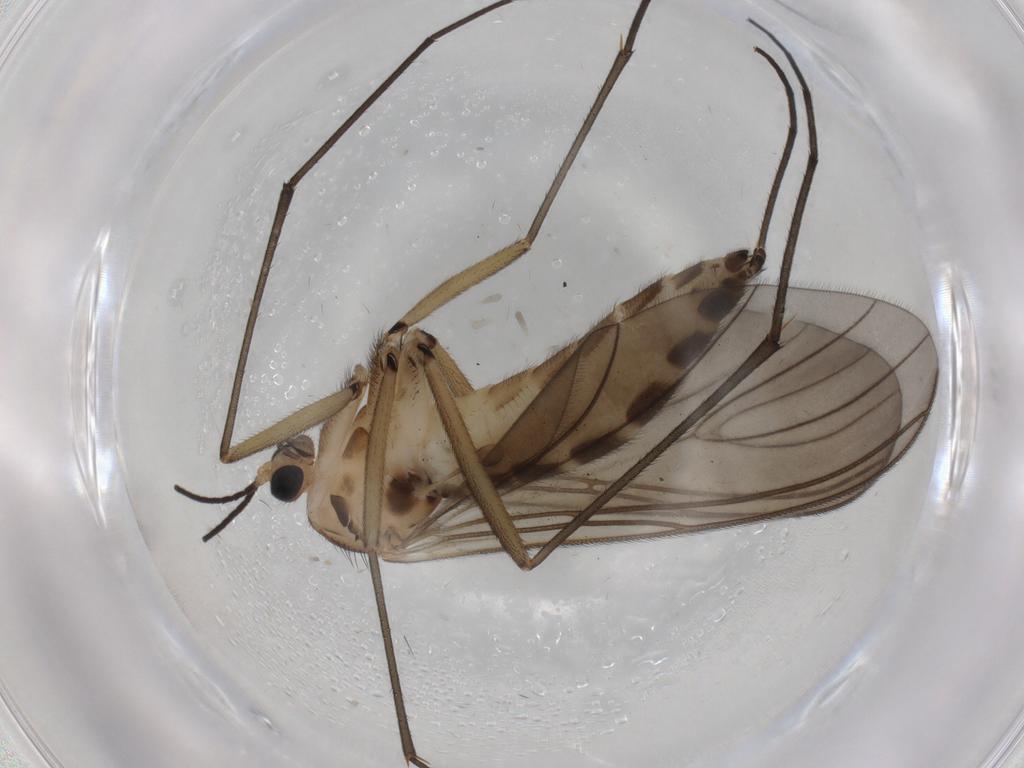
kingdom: Animalia
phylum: Arthropoda
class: Insecta
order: Diptera
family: Sciaridae
